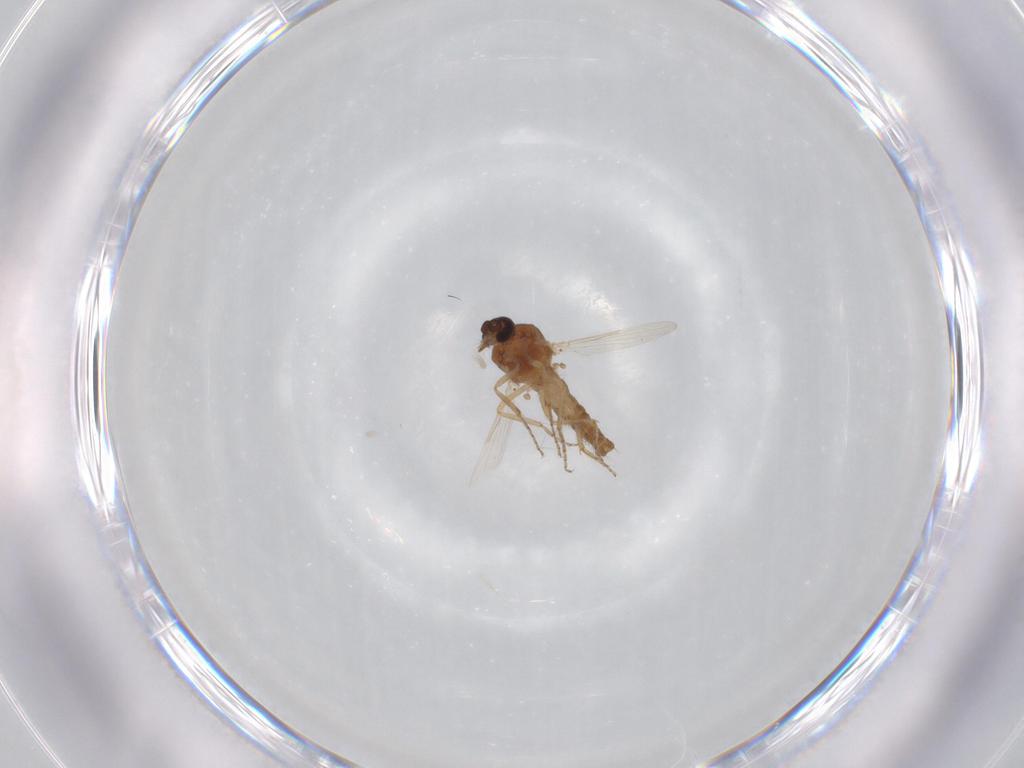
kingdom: Animalia
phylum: Arthropoda
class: Insecta
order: Diptera
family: Ceratopogonidae
